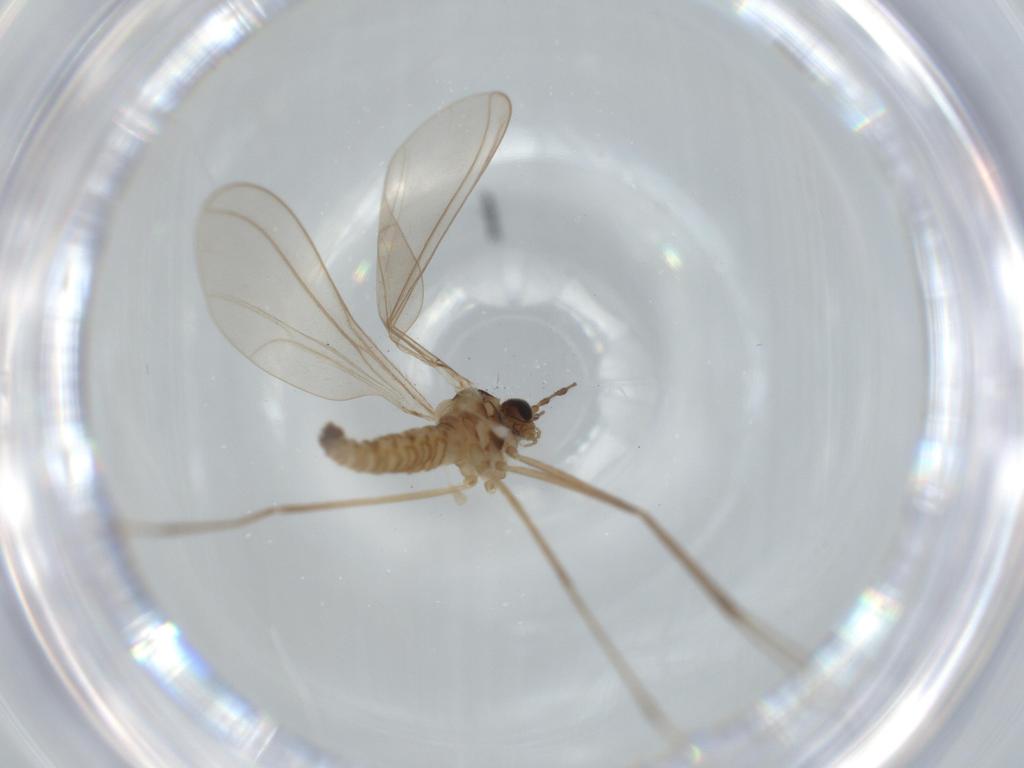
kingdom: Animalia
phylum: Arthropoda
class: Insecta
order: Diptera
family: Cecidomyiidae
